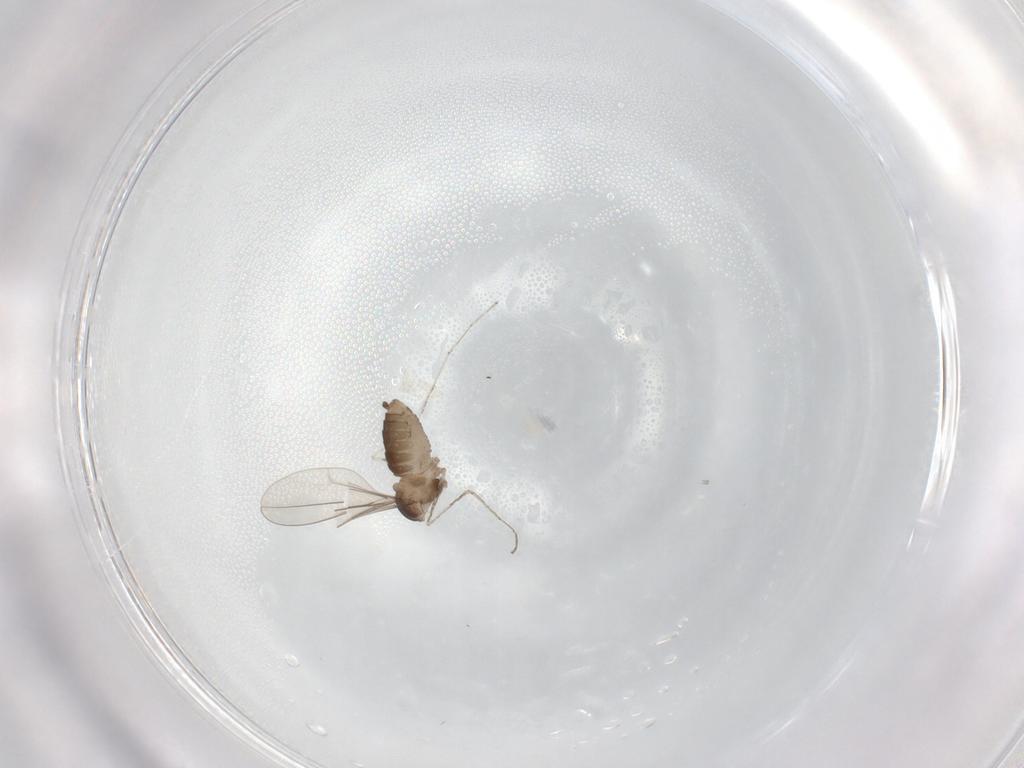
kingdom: Animalia
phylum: Arthropoda
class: Insecta
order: Diptera
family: Cecidomyiidae
